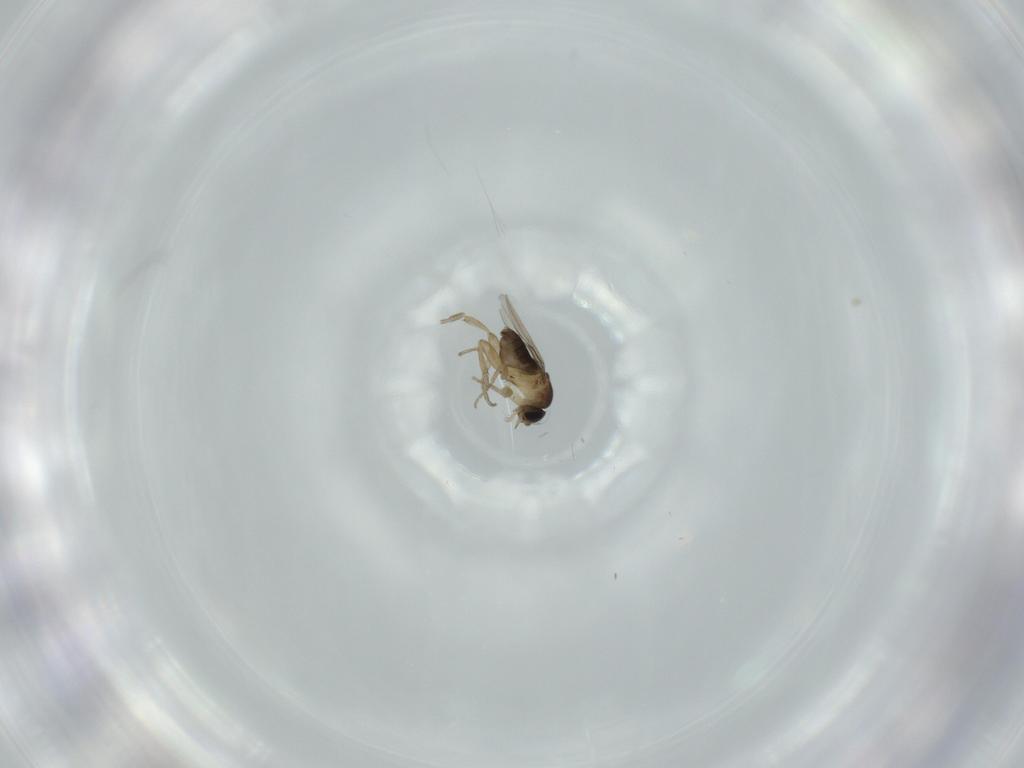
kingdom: Animalia
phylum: Arthropoda
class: Insecta
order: Diptera
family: Phoridae
